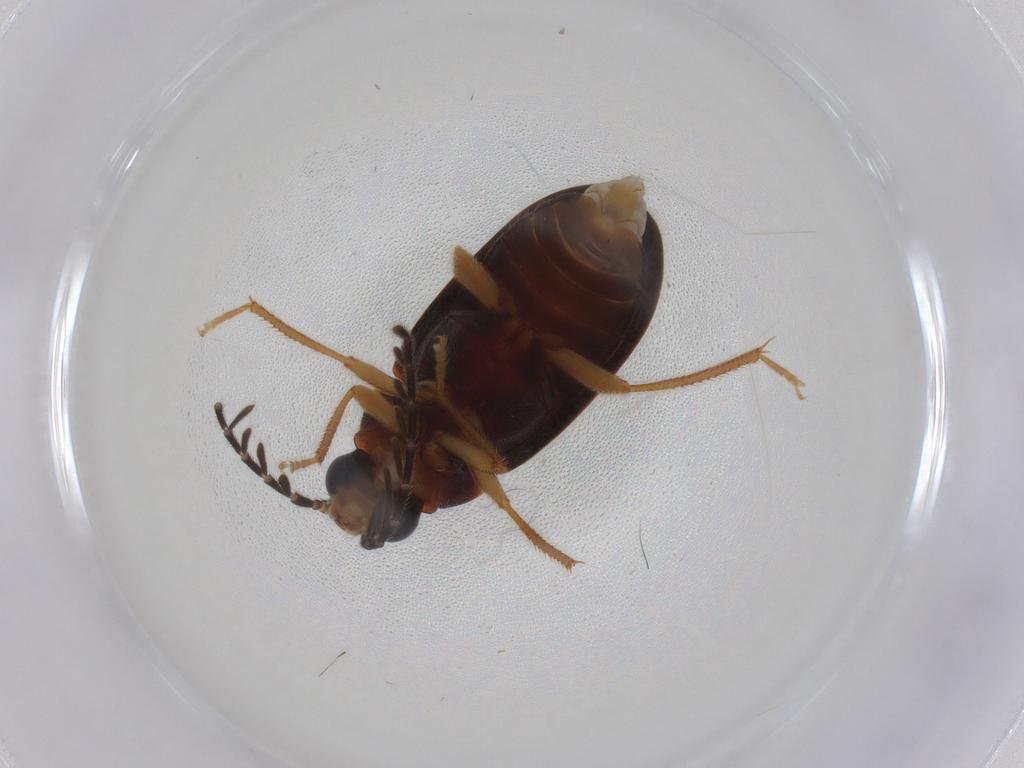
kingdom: Animalia
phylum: Arthropoda
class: Insecta
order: Coleoptera
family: Ptilodactylidae
